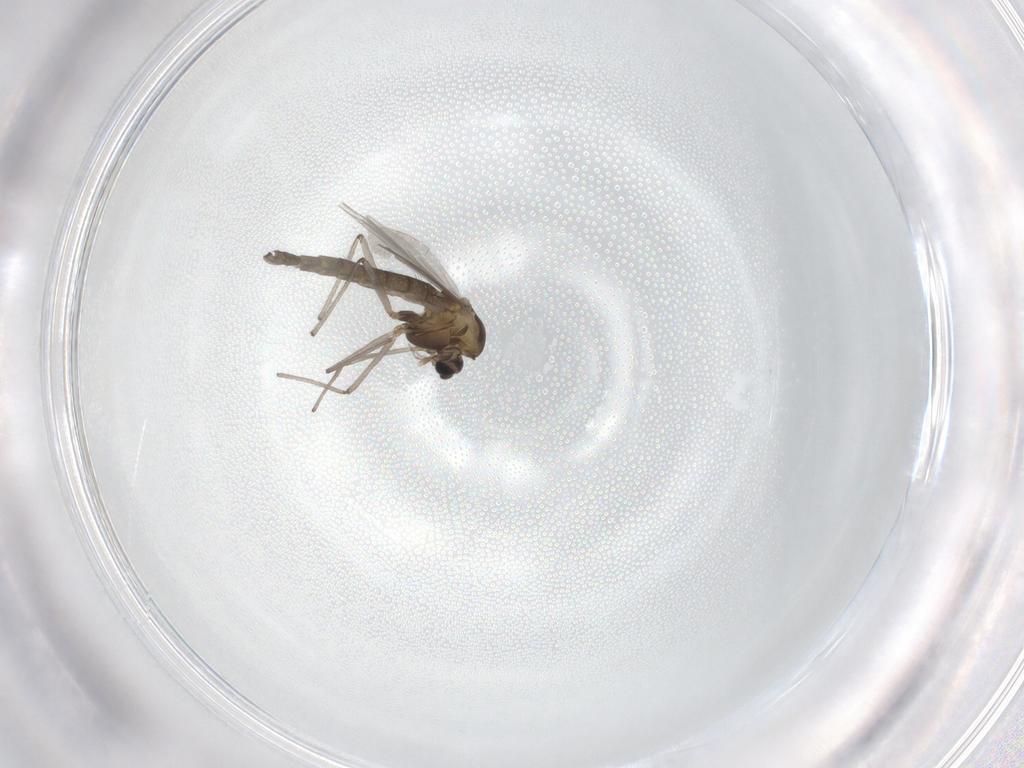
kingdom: Animalia
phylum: Arthropoda
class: Insecta
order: Diptera
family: Chironomidae
